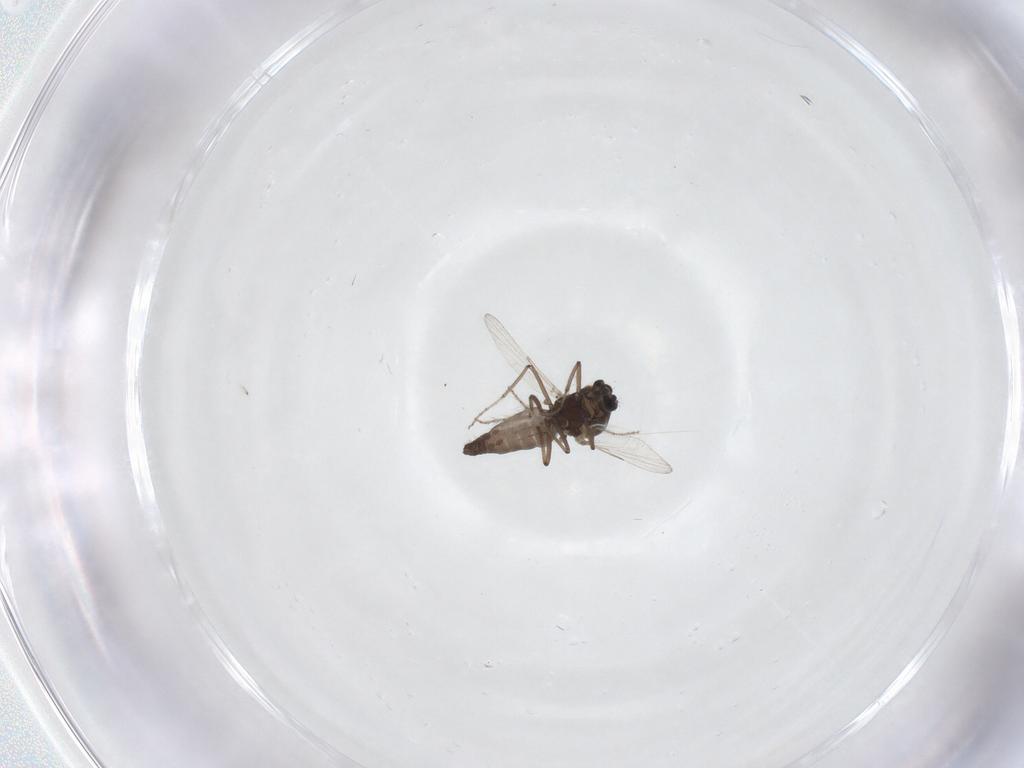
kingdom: Animalia
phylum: Arthropoda
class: Insecta
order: Diptera
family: Ceratopogonidae
